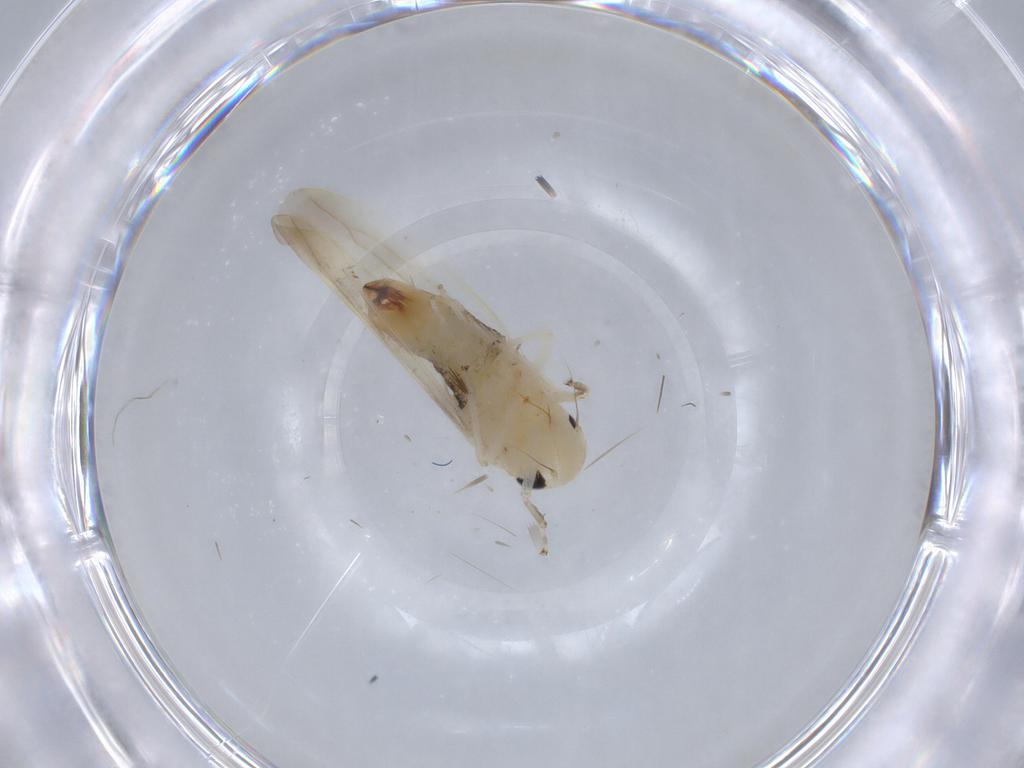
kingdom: Animalia
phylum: Arthropoda
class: Insecta
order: Hemiptera
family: Cicadellidae
